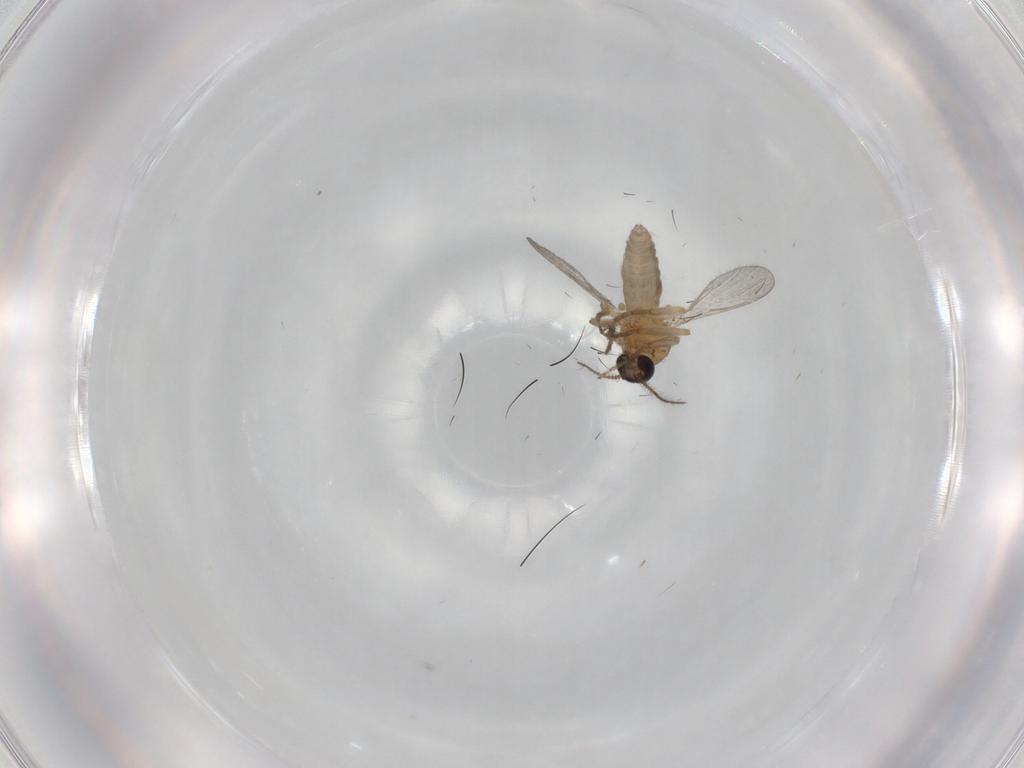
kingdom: Animalia
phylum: Arthropoda
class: Insecta
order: Diptera
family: Ceratopogonidae
